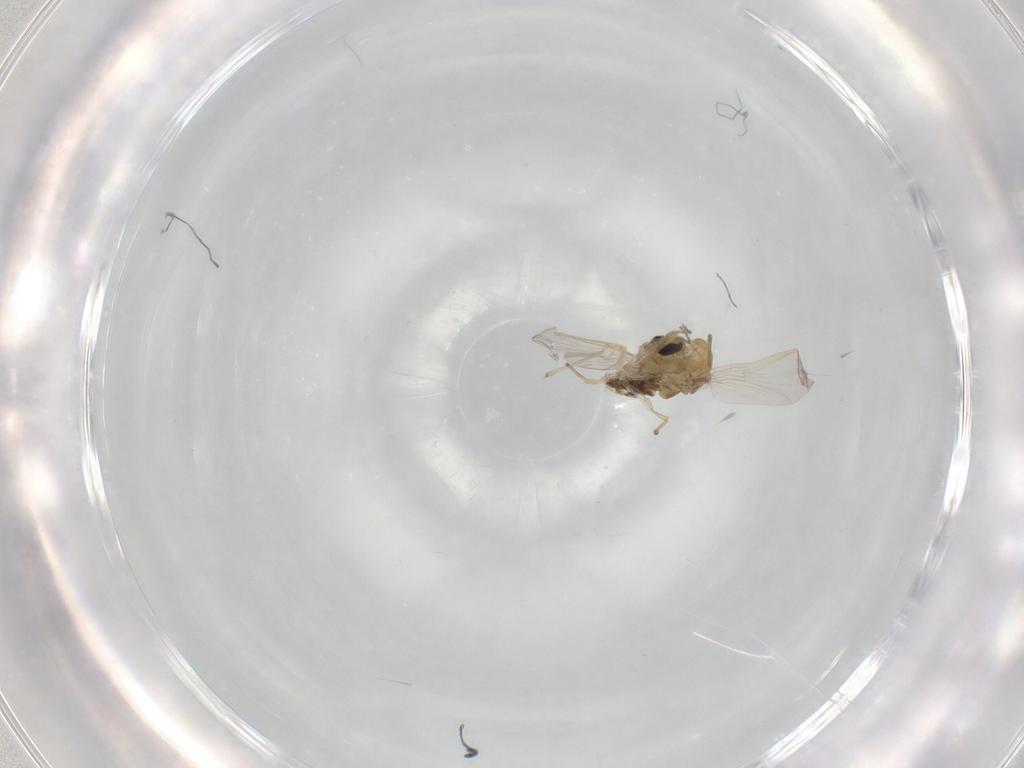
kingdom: Animalia
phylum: Arthropoda
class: Insecta
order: Diptera
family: Chironomidae
